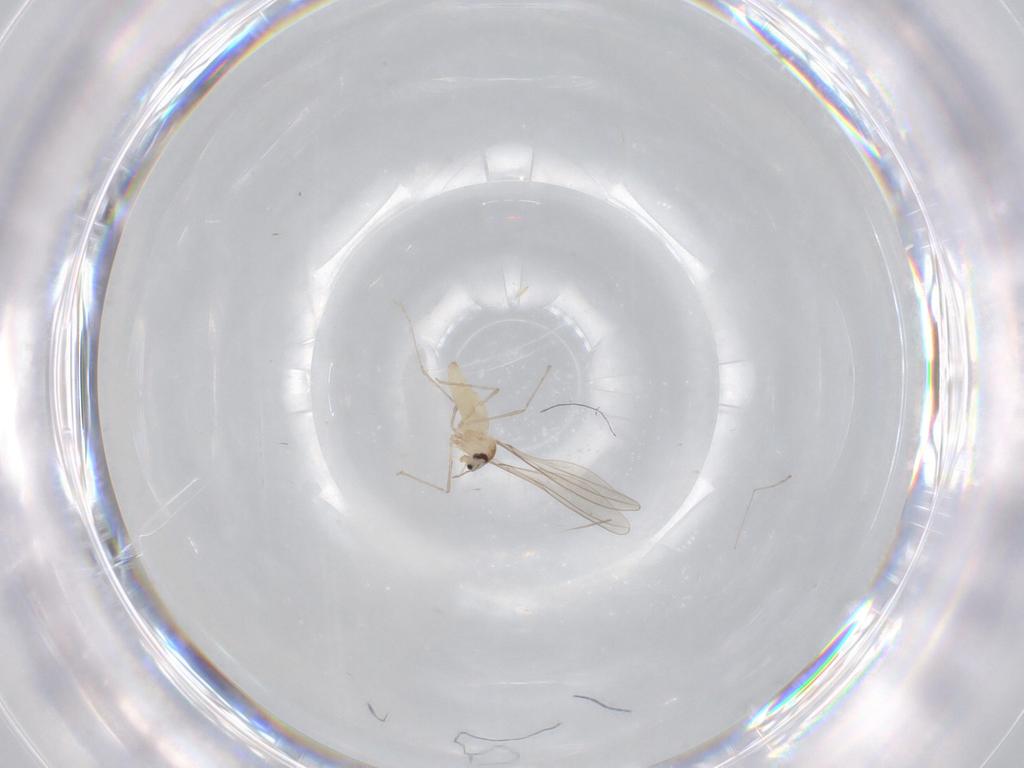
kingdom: Animalia
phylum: Arthropoda
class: Insecta
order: Diptera
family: Cecidomyiidae
